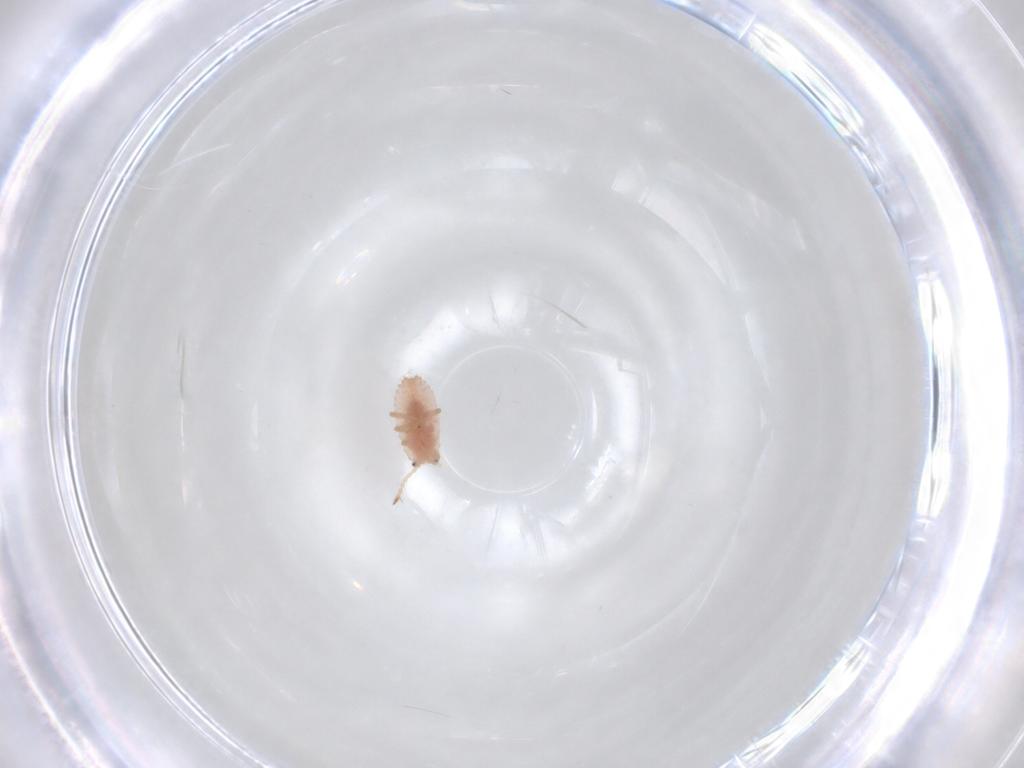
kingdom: Animalia
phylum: Arthropoda
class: Insecta
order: Hemiptera
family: Coccoidea_incertae_sedis
